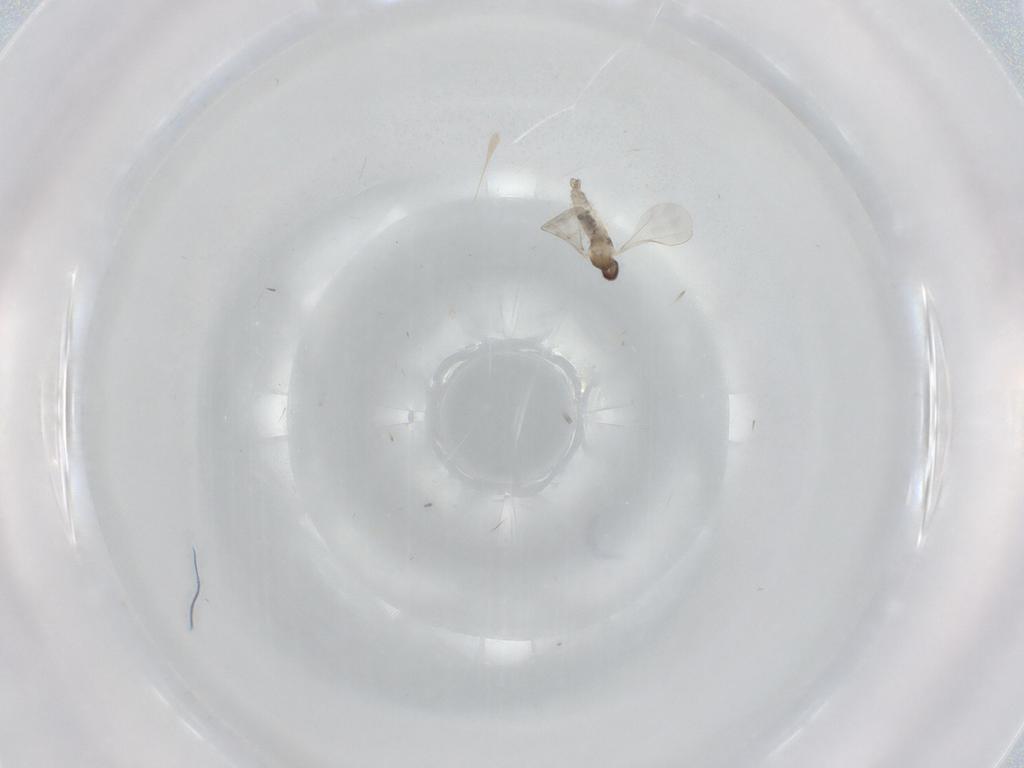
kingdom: Animalia
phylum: Arthropoda
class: Insecta
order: Diptera
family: Cecidomyiidae
